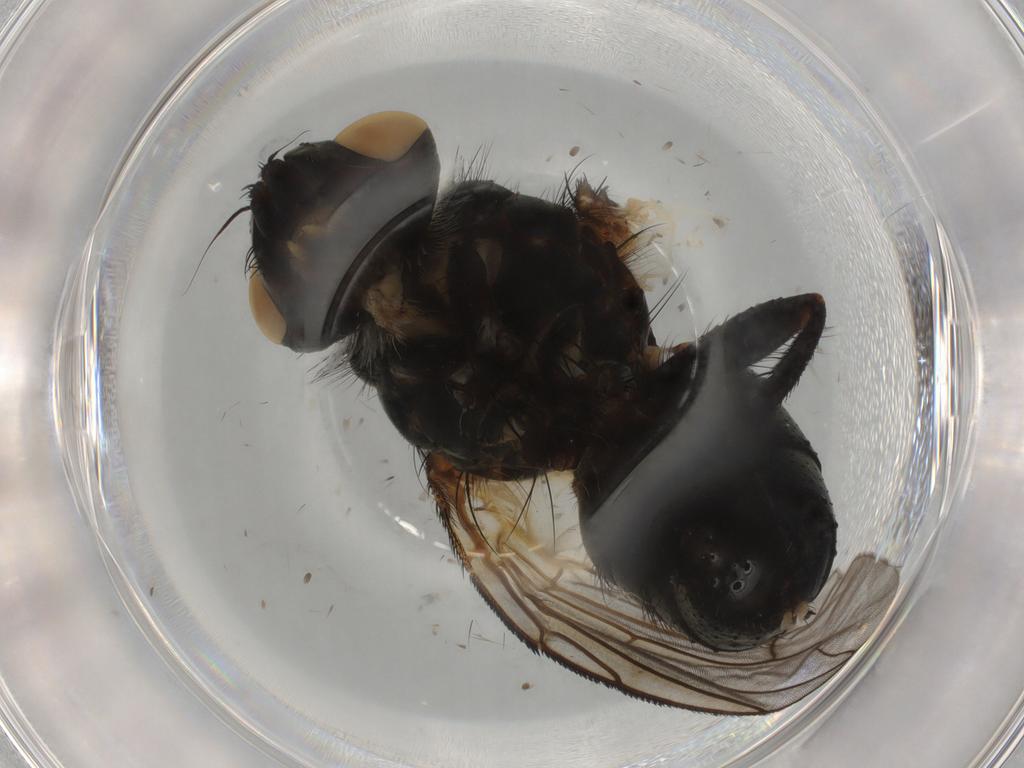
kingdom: Animalia
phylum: Arthropoda
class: Insecta
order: Diptera
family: Tachinidae
